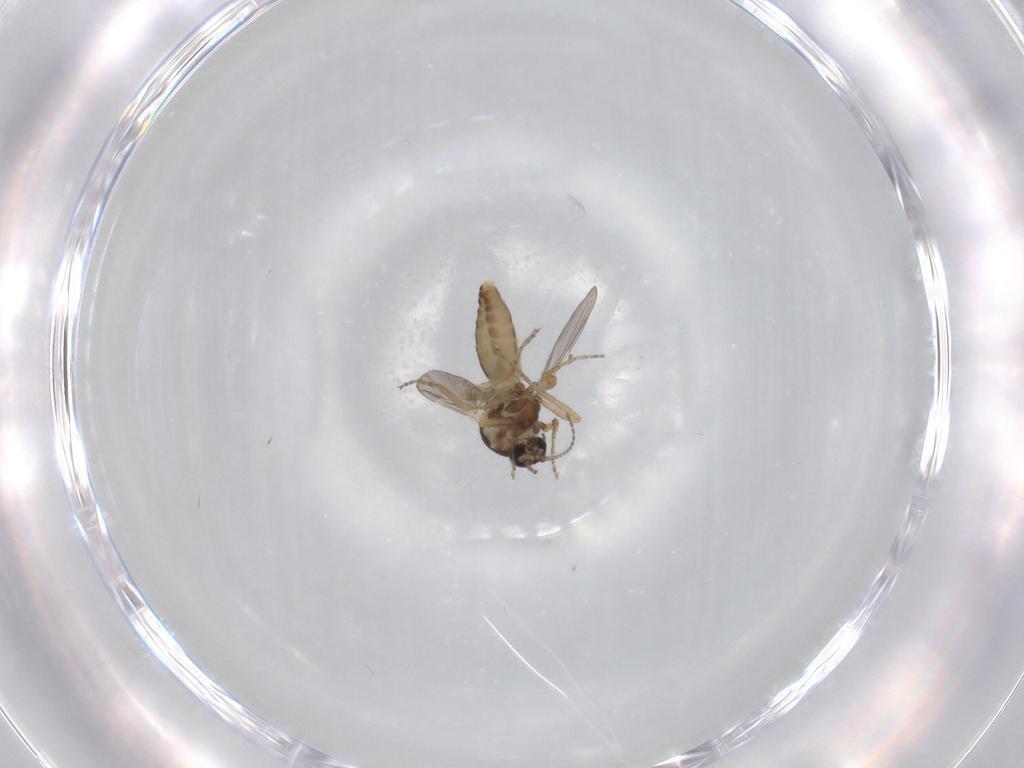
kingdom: Animalia
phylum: Arthropoda
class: Insecta
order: Diptera
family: Ceratopogonidae
